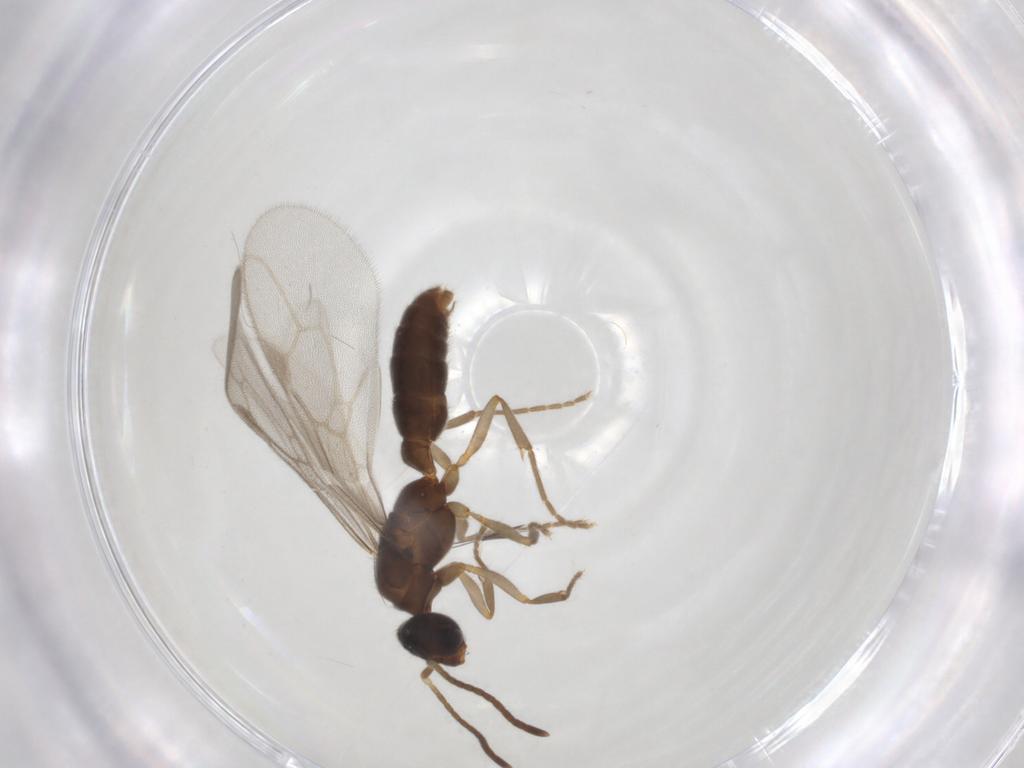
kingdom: Animalia
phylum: Arthropoda
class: Insecta
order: Hymenoptera
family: Formicidae
